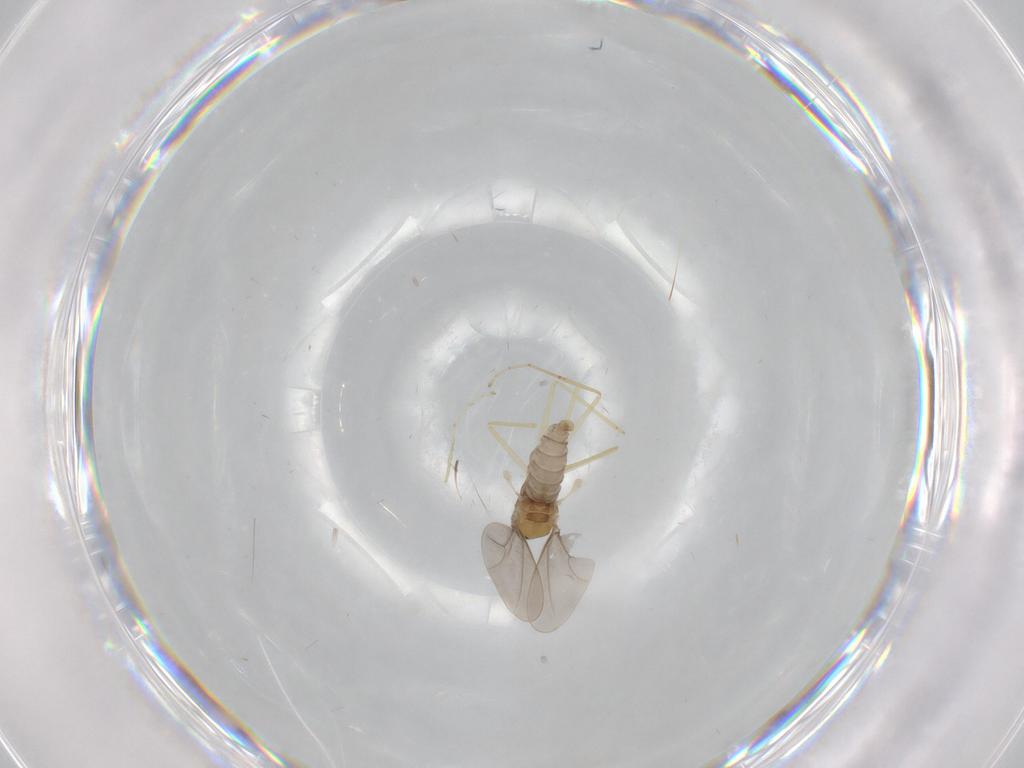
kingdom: Animalia
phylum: Arthropoda
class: Insecta
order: Diptera
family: Cecidomyiidae
